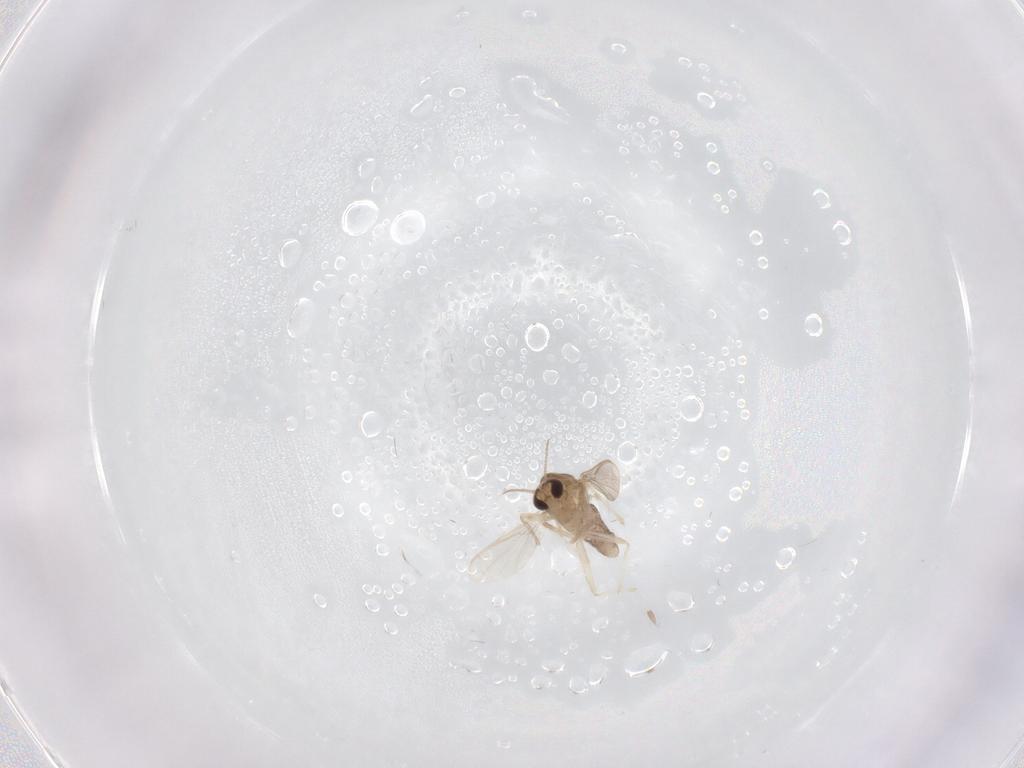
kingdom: Animalia
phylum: Arthropoda
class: Insecta
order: Diptera
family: Chironomidae
